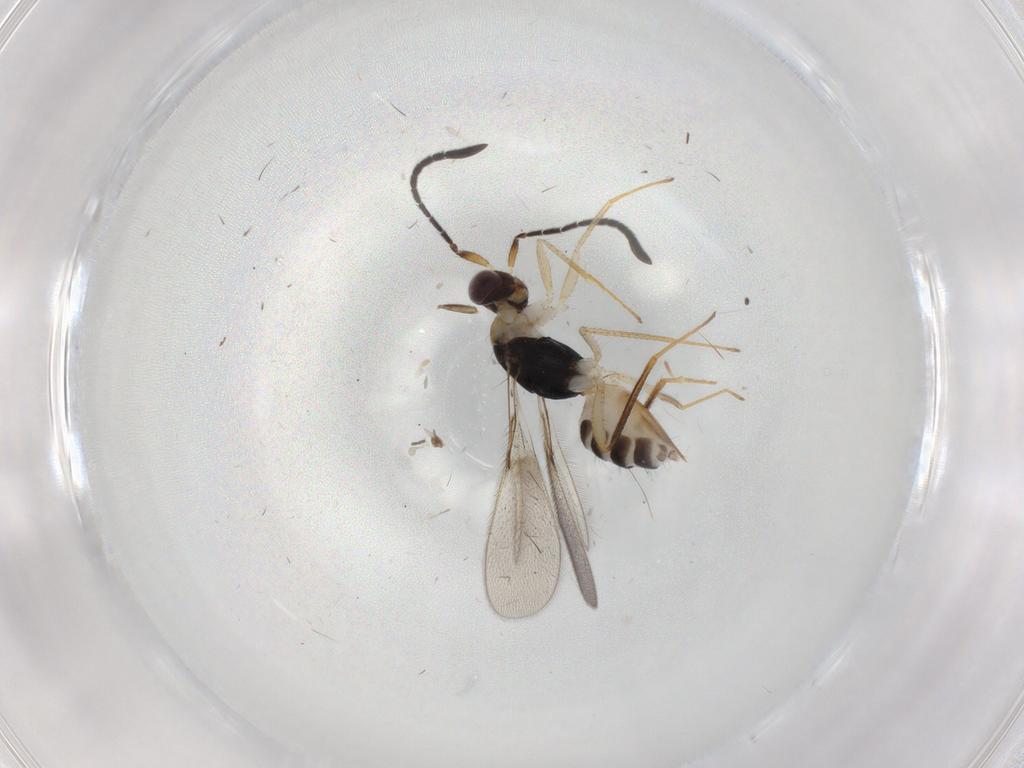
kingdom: Animalia
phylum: Arthropoda
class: Insecta
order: Hymenoptera
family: Mymaridae
